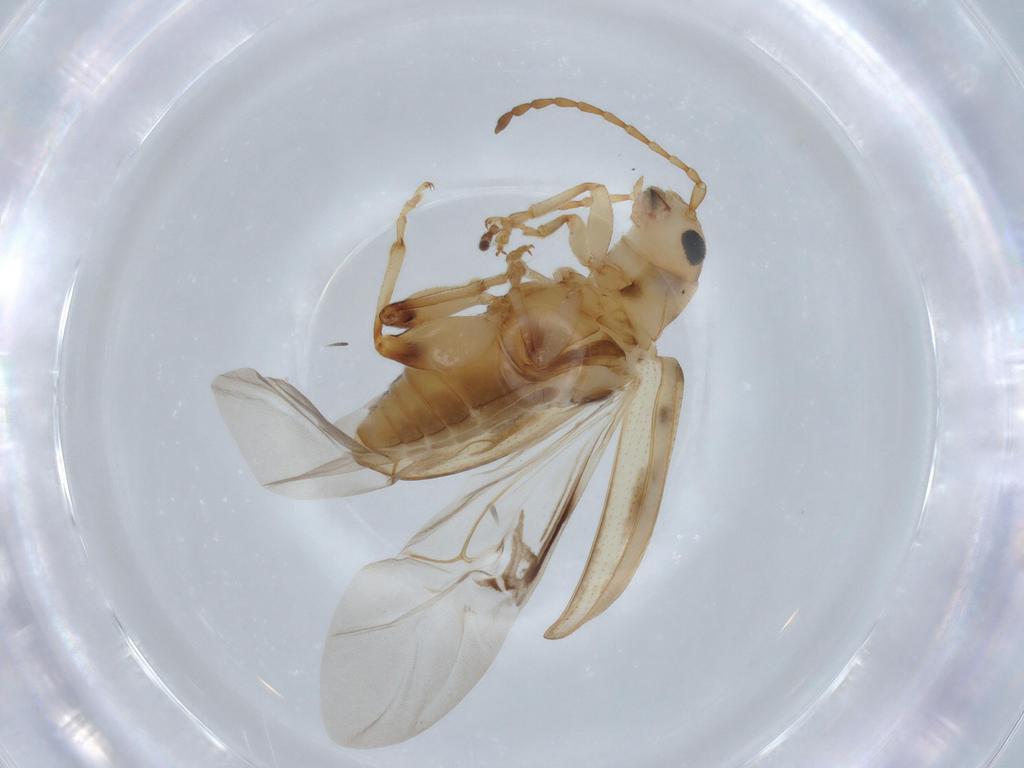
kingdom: Animalia
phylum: Arthropoda
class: Insecta
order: Coleoptera
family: Chrysomelidae
